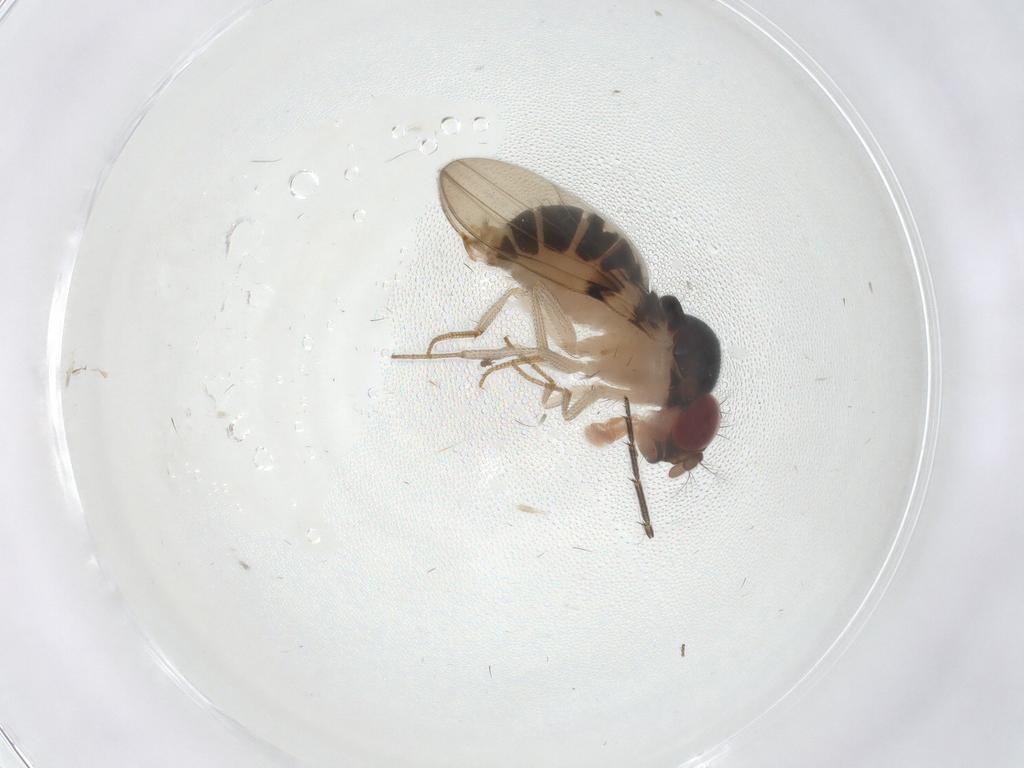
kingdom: Animalia
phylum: Arthropoda
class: Insecta
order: Diptera
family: Drosophilidae
